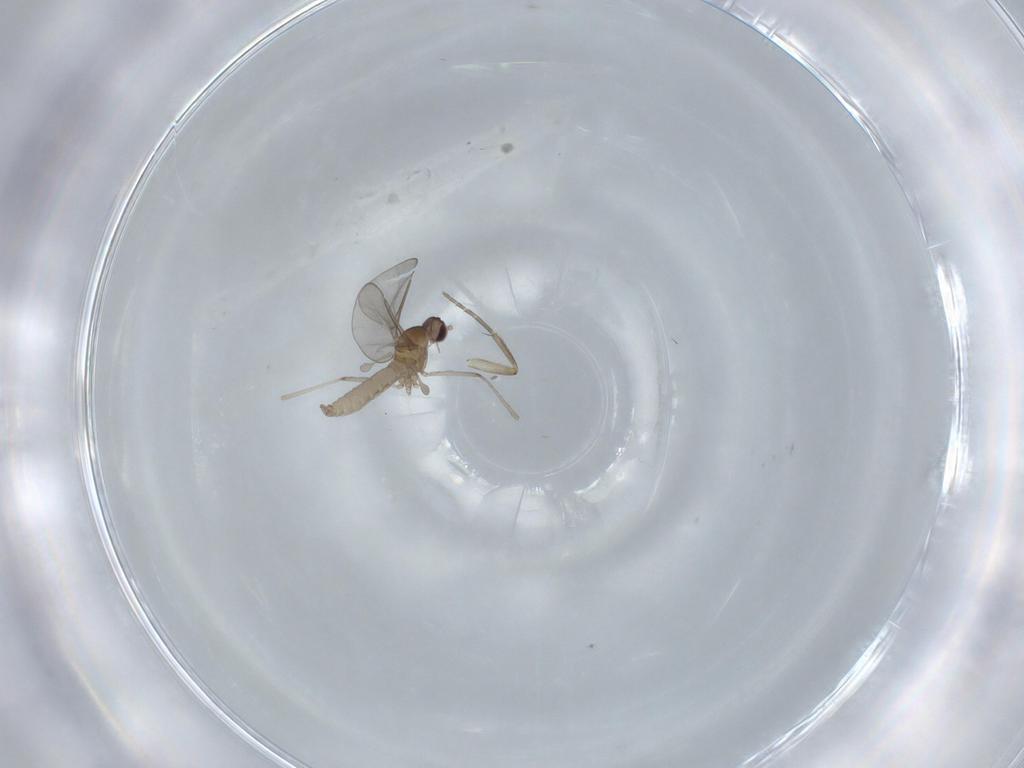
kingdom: Animalia
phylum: Arthropoda
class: Insecta
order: Diptera
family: Phoridae
